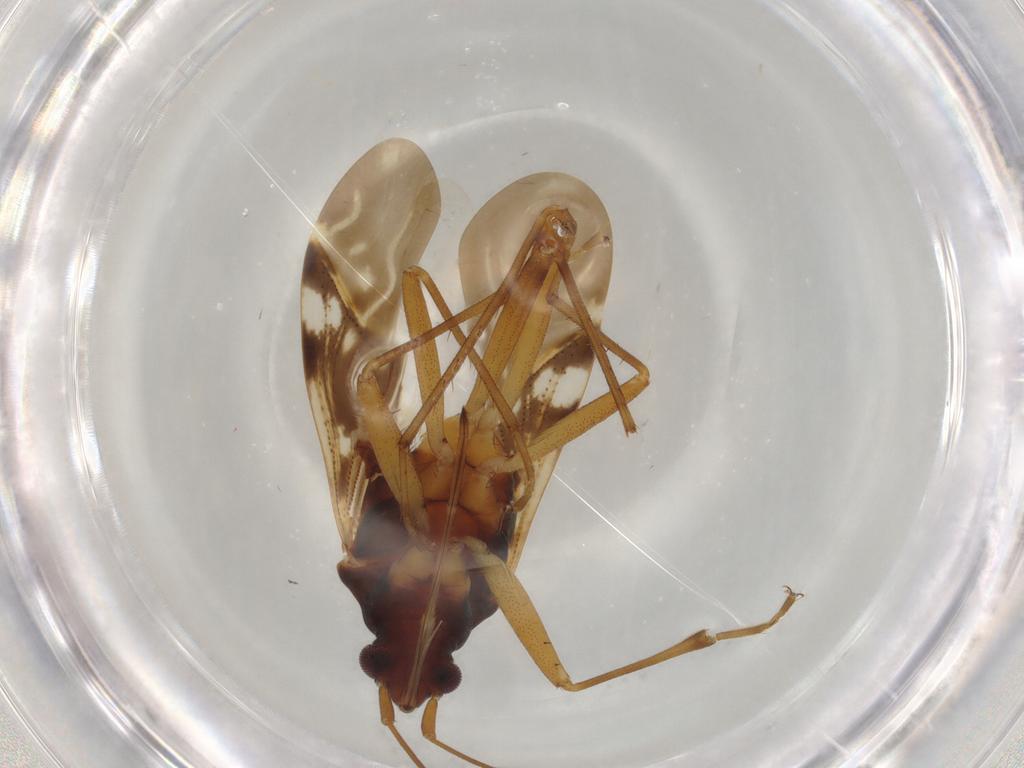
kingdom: Animalia
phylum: Arthropoda
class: Insecta
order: Hemiptera
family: Rhyparochromidae
